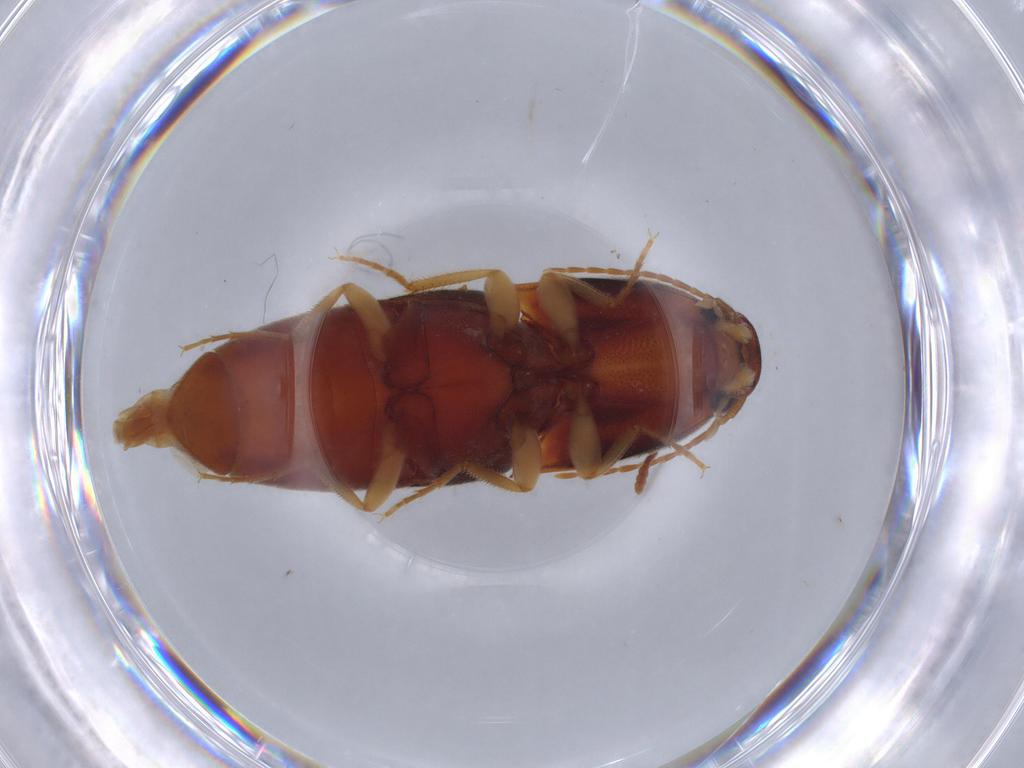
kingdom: Animalia
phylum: Arthropoda
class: Insecta
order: Coleoptera
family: Elateridae
